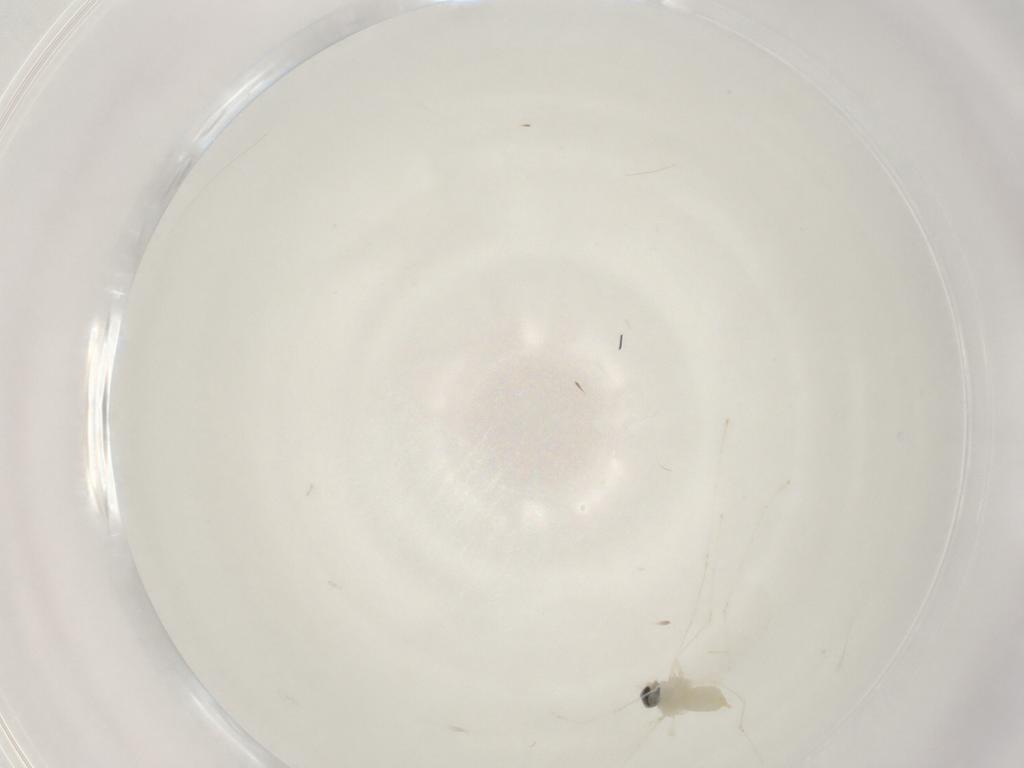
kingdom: Animalia
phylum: Arthropoda
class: Insecta
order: Diptera
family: Cecidomyiidae
